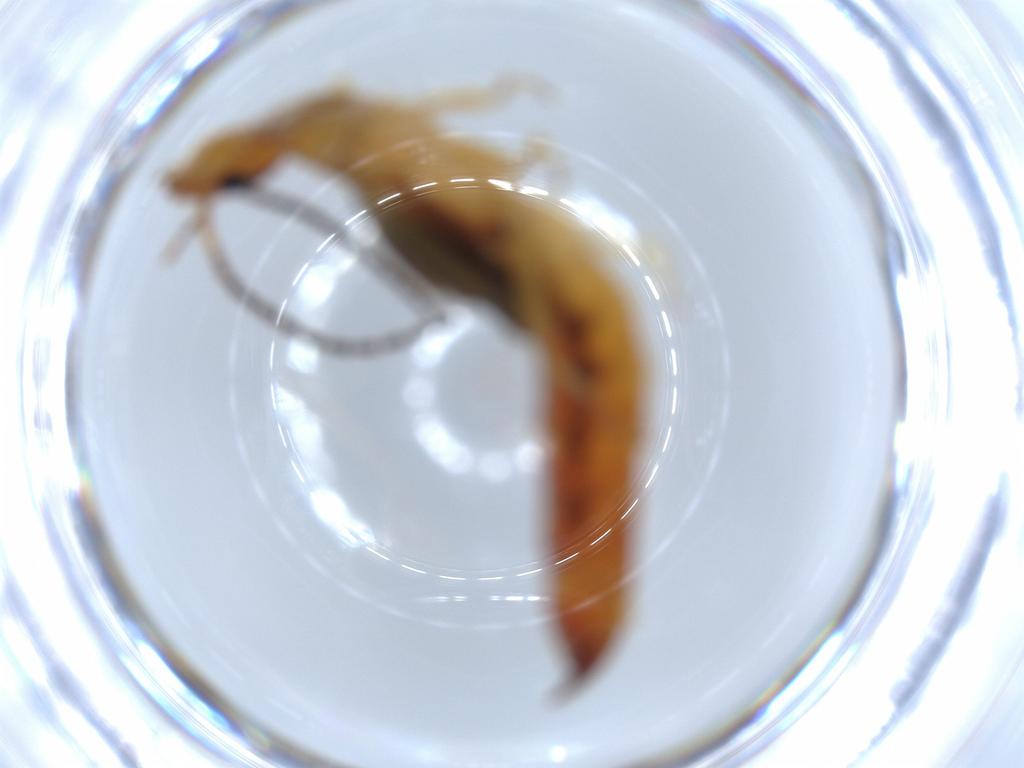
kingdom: Animalia
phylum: Arthropoda
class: Insecta
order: Dermaptera
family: Forficulidae
